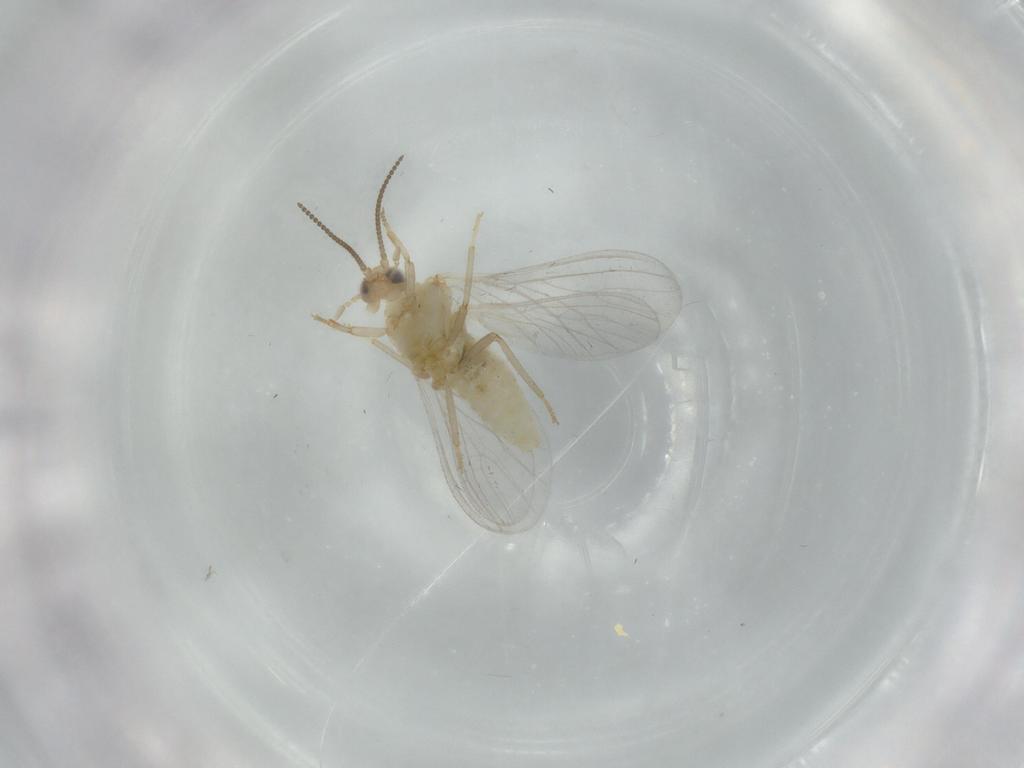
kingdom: Animalia
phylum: Arthropoda
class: Insecta
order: Neuroptera
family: Coniopterygidae
